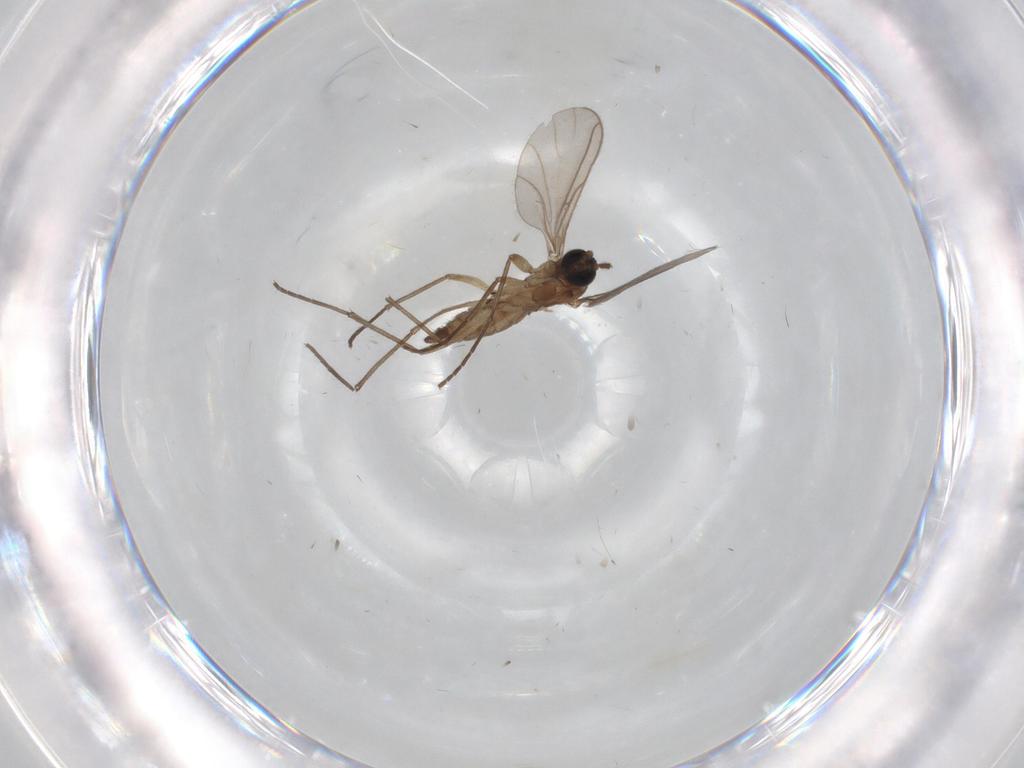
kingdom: Animalia
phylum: Arthropoda
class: Insecta
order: Diptera
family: Sciaridae
